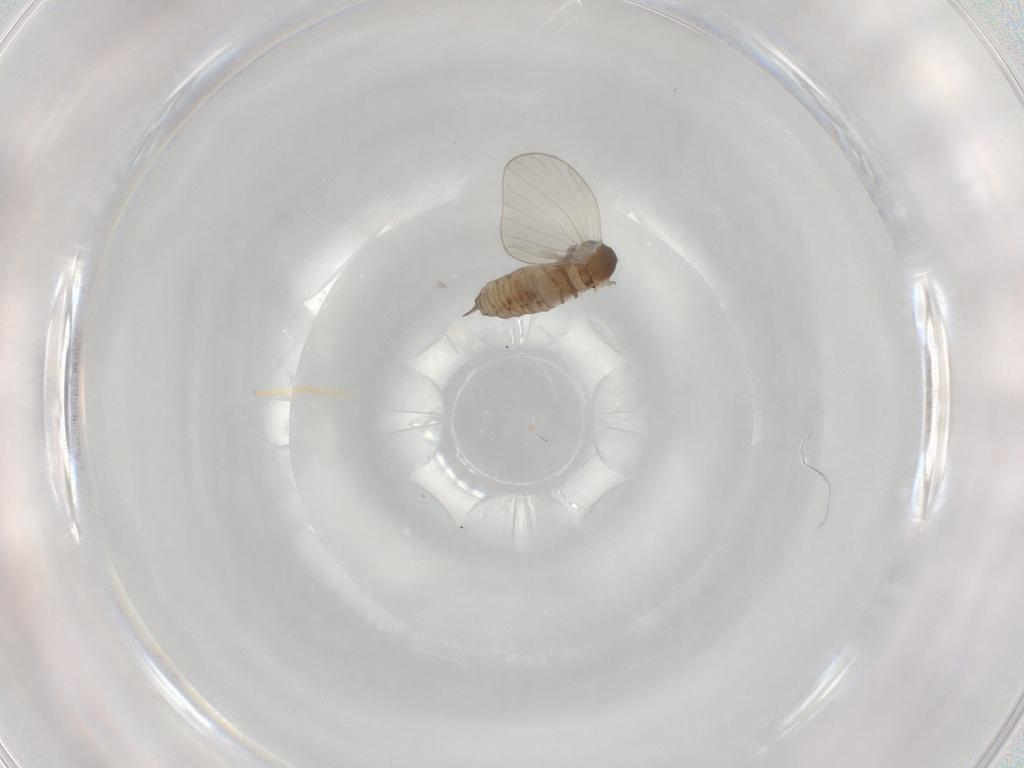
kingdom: Animalia
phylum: Arthropoda
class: Insecta
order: Diptera
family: Psychodidae
